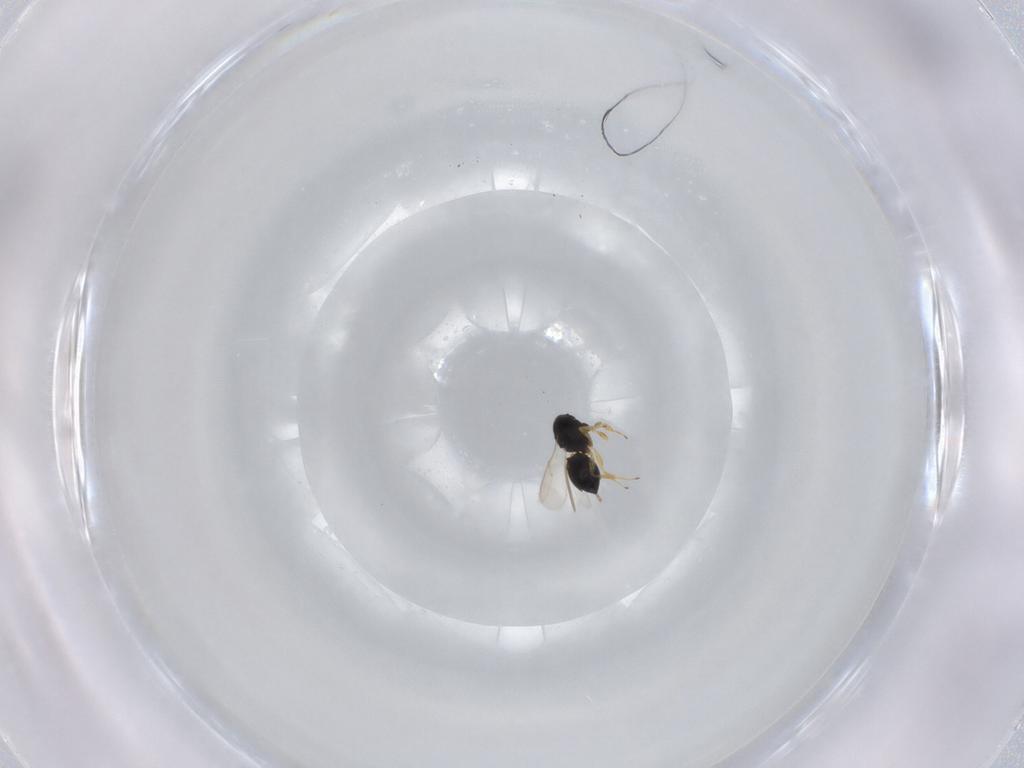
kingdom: Animalia
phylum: Arthropoda
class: Insecta
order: Hymenoptera
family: Scelionidae
